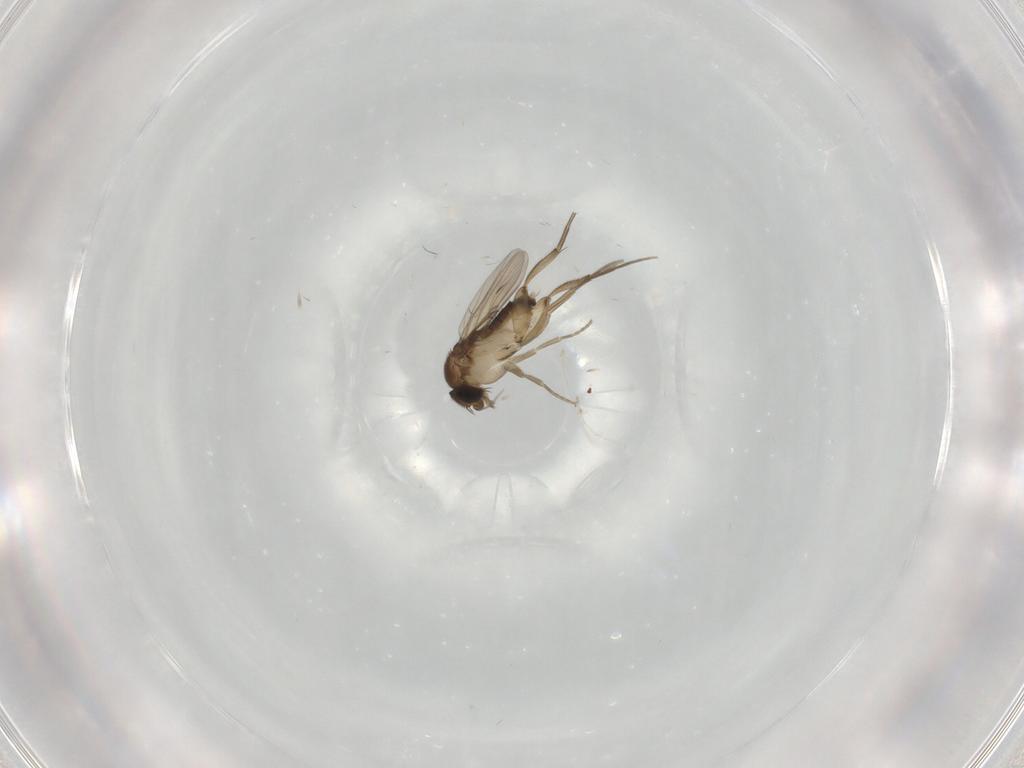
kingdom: Animalia
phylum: Arthropoda
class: Insecta
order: Diptera
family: Phoridae
